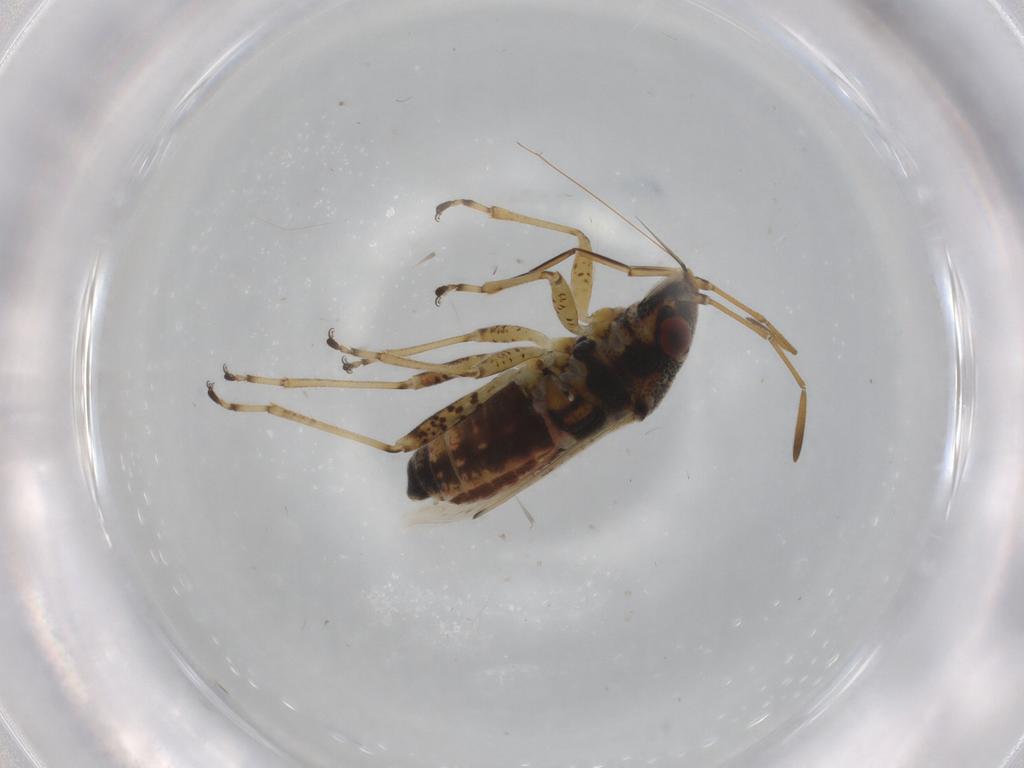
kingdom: Animalia
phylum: Arthropoda
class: Insecta
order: Hemiptera
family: Lygaeidae
